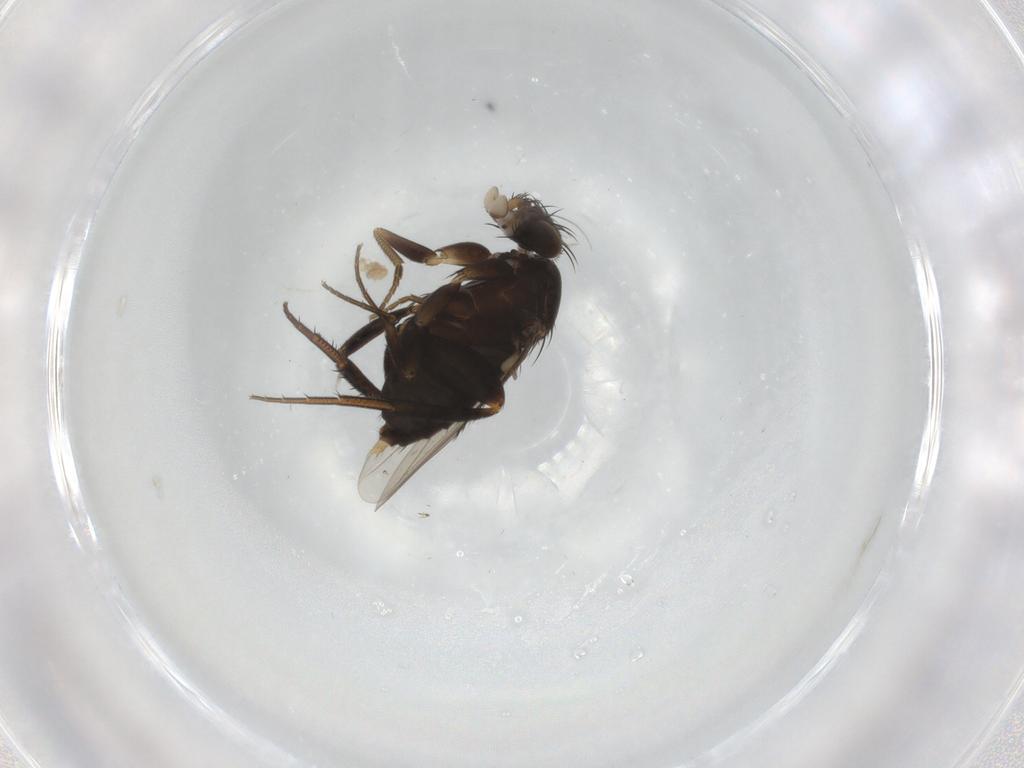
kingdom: Animalia
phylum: Arthropoda
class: Insecta
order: Diptera
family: Phoridae
